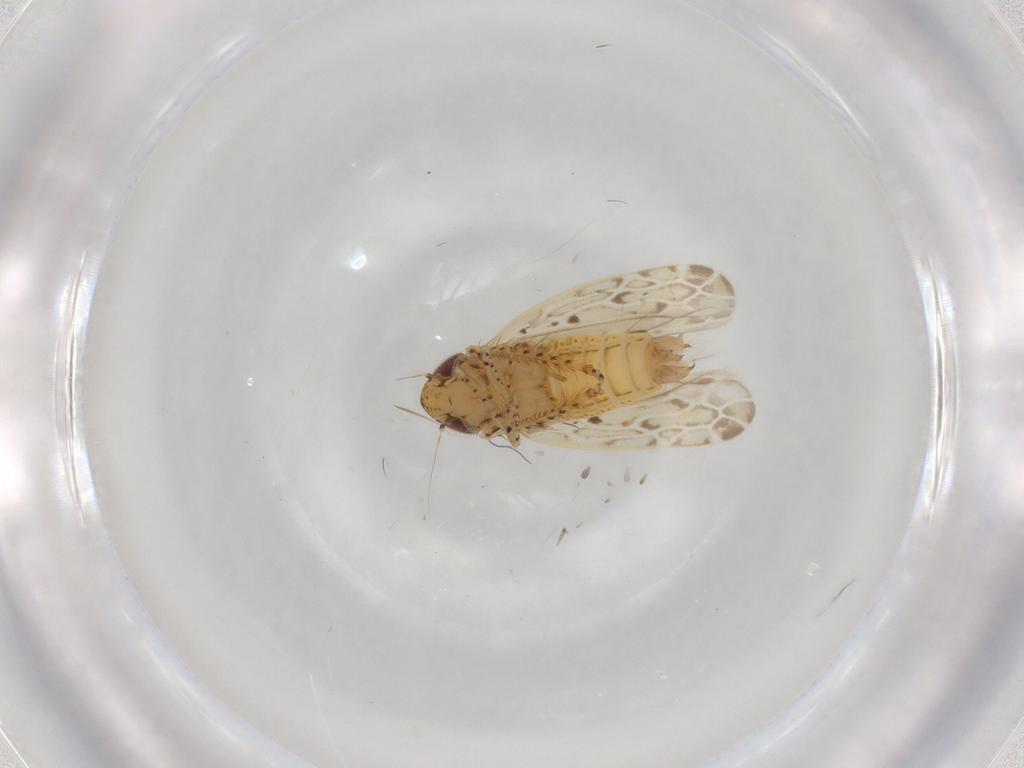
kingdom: Animalia
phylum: Arthropoda
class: Insecta
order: Hemiptera
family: Cicadellidae
